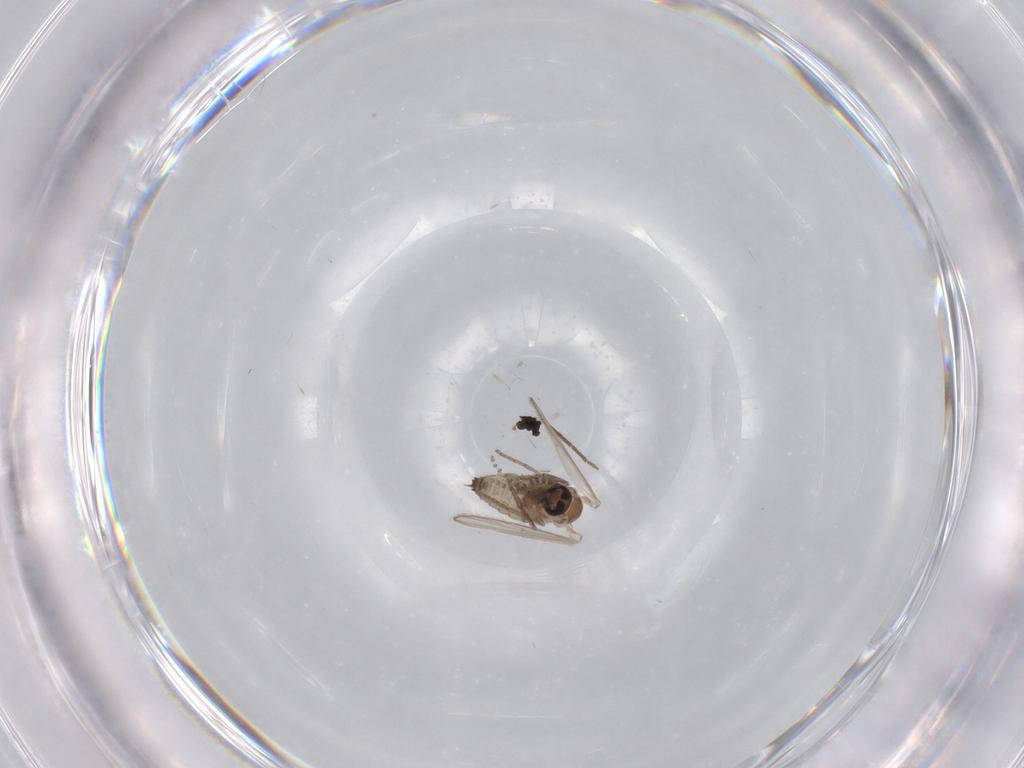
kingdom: Animalia
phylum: Arthropoda
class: Insecta
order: Diptera
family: Psychodidae
